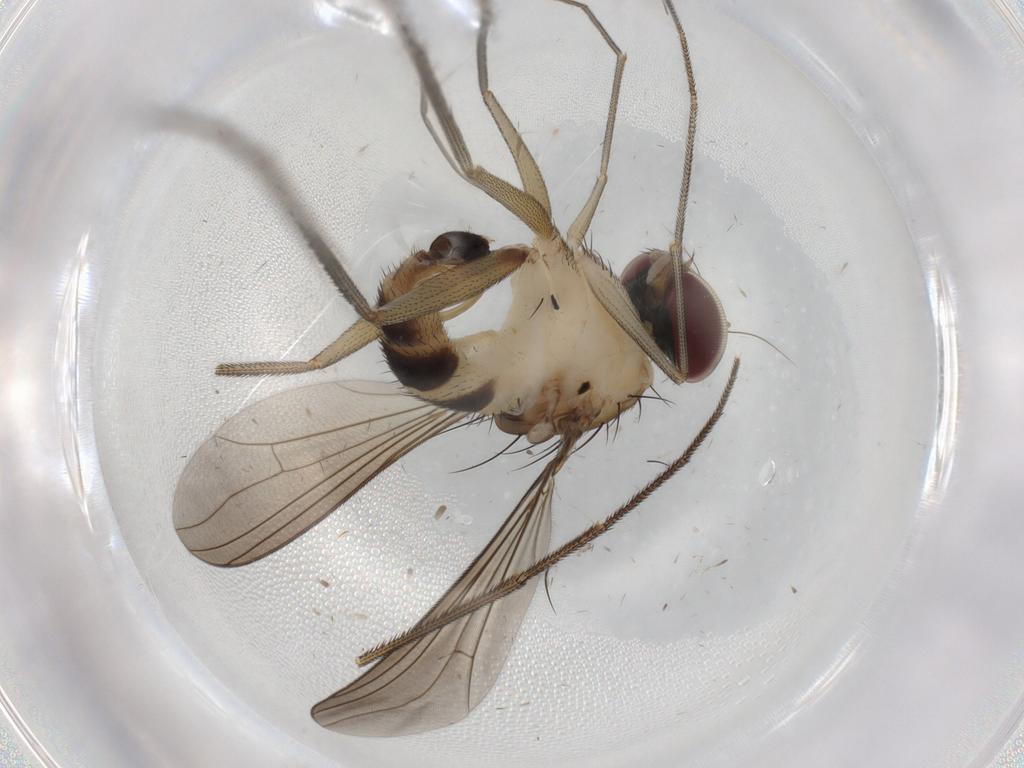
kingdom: Animalia
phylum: Arthropoda
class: Insecta
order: Diptera
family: Dolichopodidae
